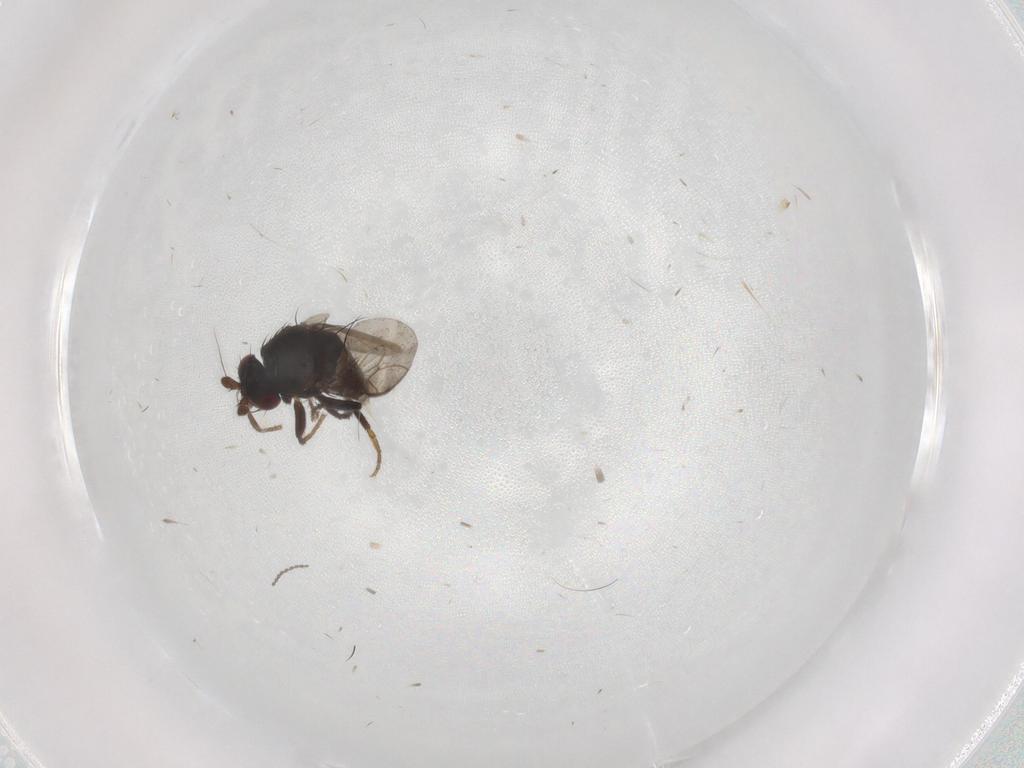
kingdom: Animalia
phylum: Arthropoda
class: Insecta
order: Diptera
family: Sphaeroceridae
